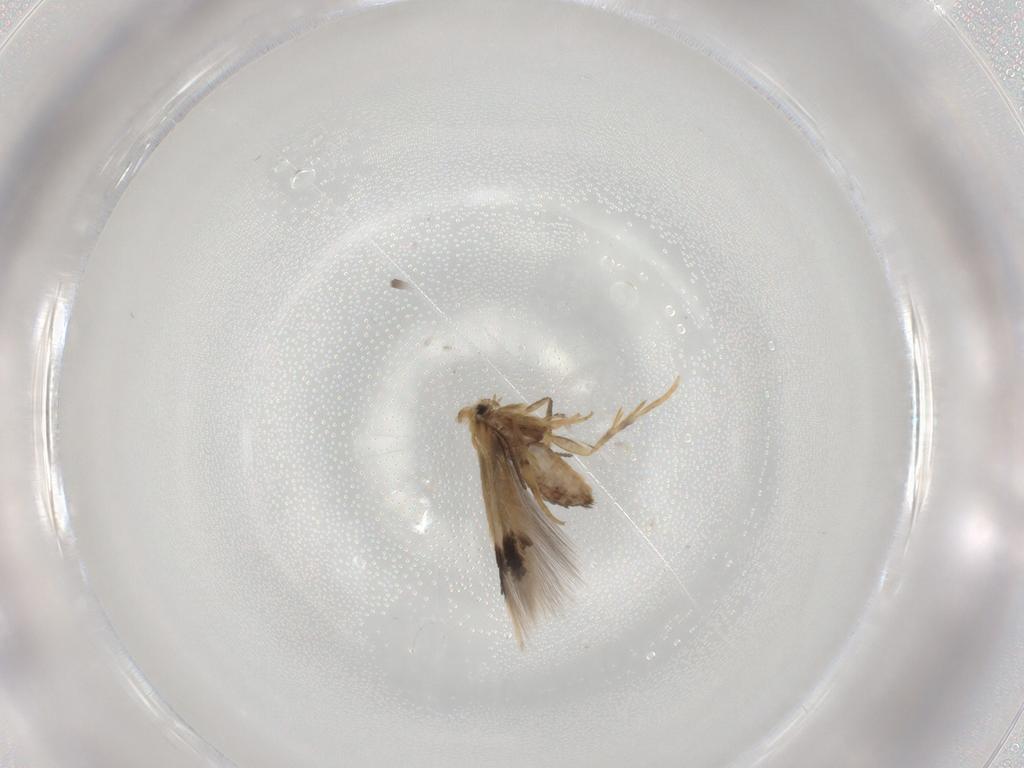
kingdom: Animalia
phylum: Arthropoda
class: Insecta
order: Lepidoptera
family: Nepticulidae
